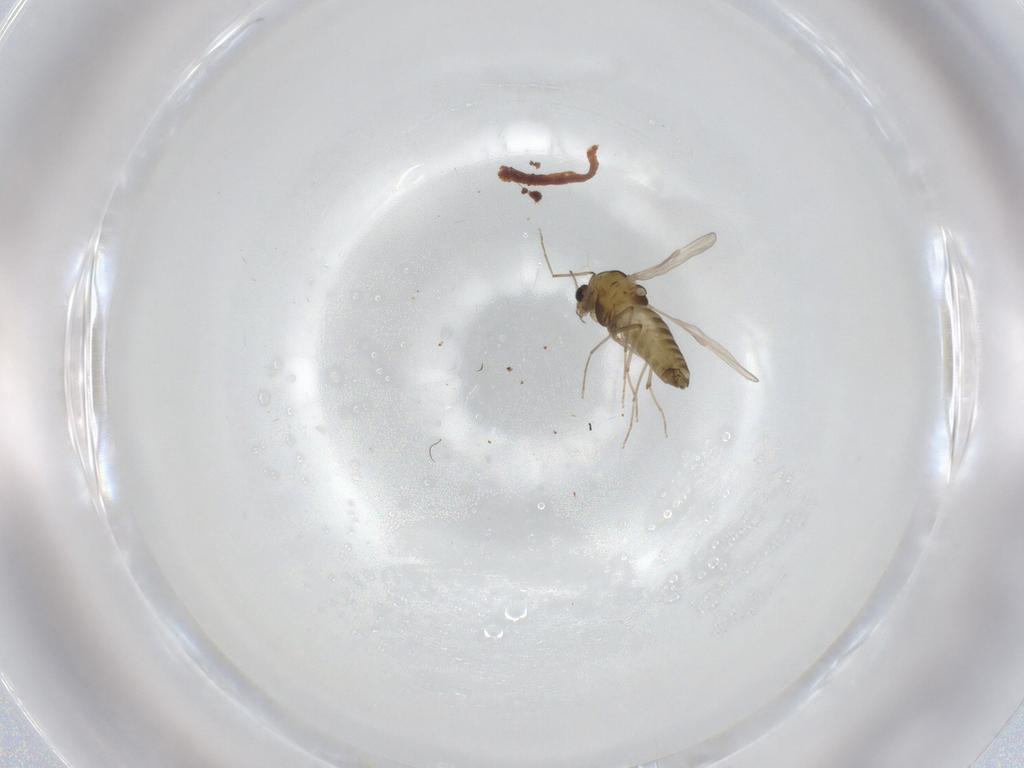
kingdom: Animalia
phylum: Arthropoda
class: Insecta
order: Diptera
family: Chironomidae
